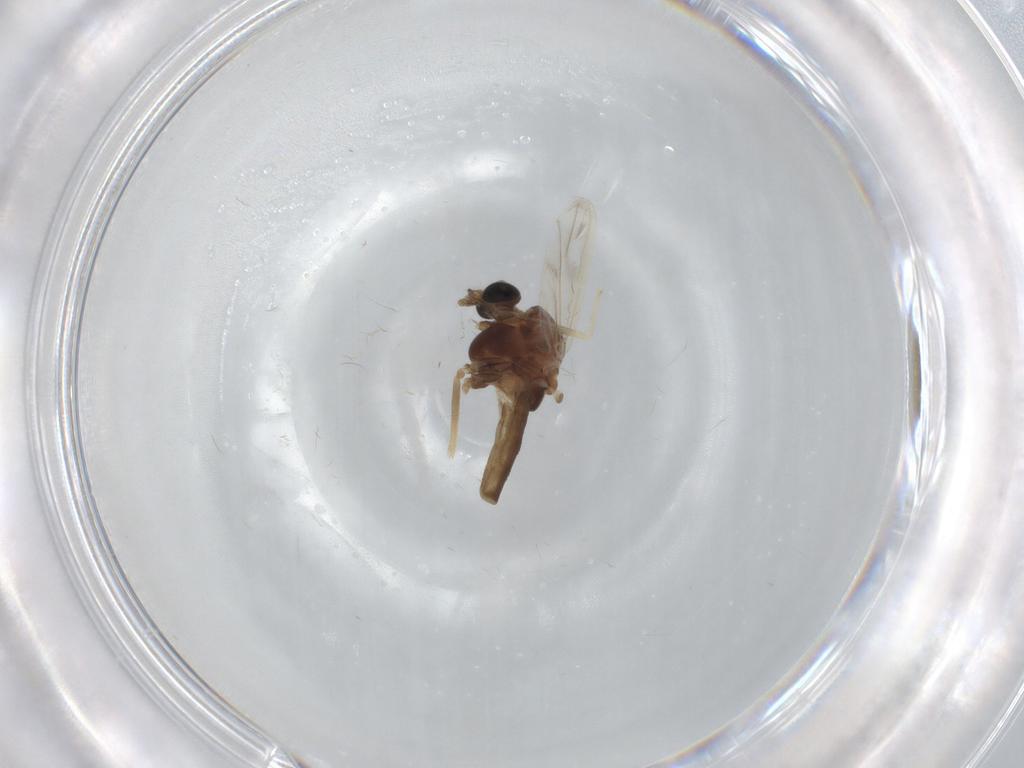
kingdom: Animalia
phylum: Arthropoda
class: Insecta
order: Diptera
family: Chironomidae
